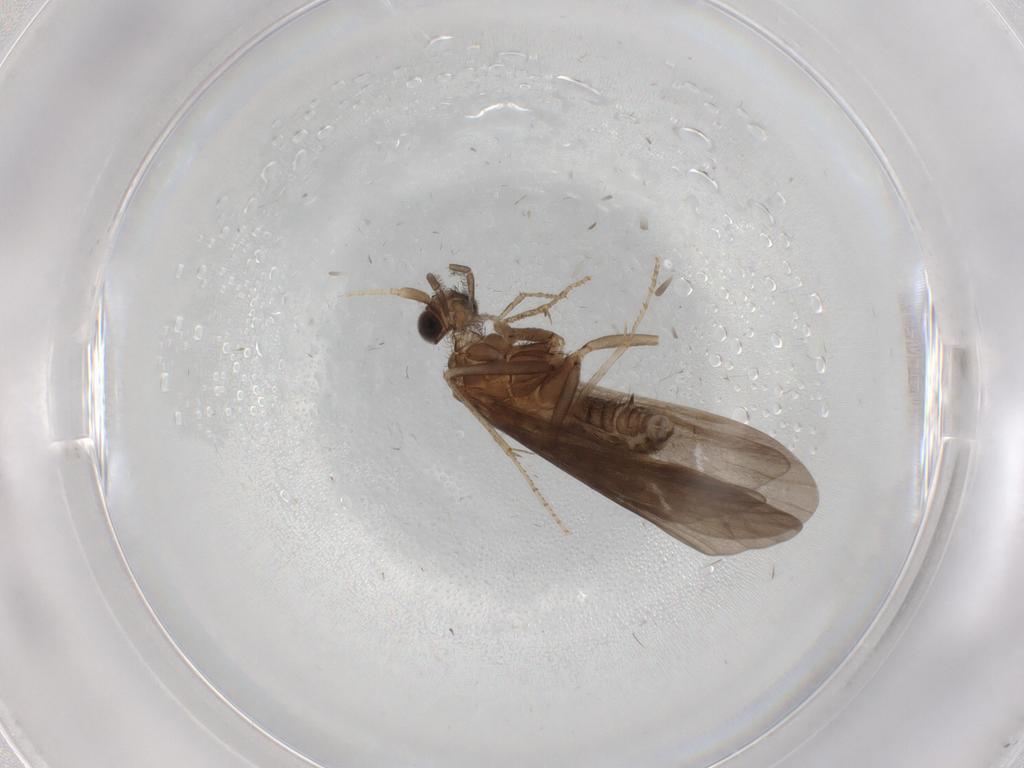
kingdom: Animalia
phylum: Arthropoda
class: Insecta
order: Trichoptera
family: Helicopsychidae
